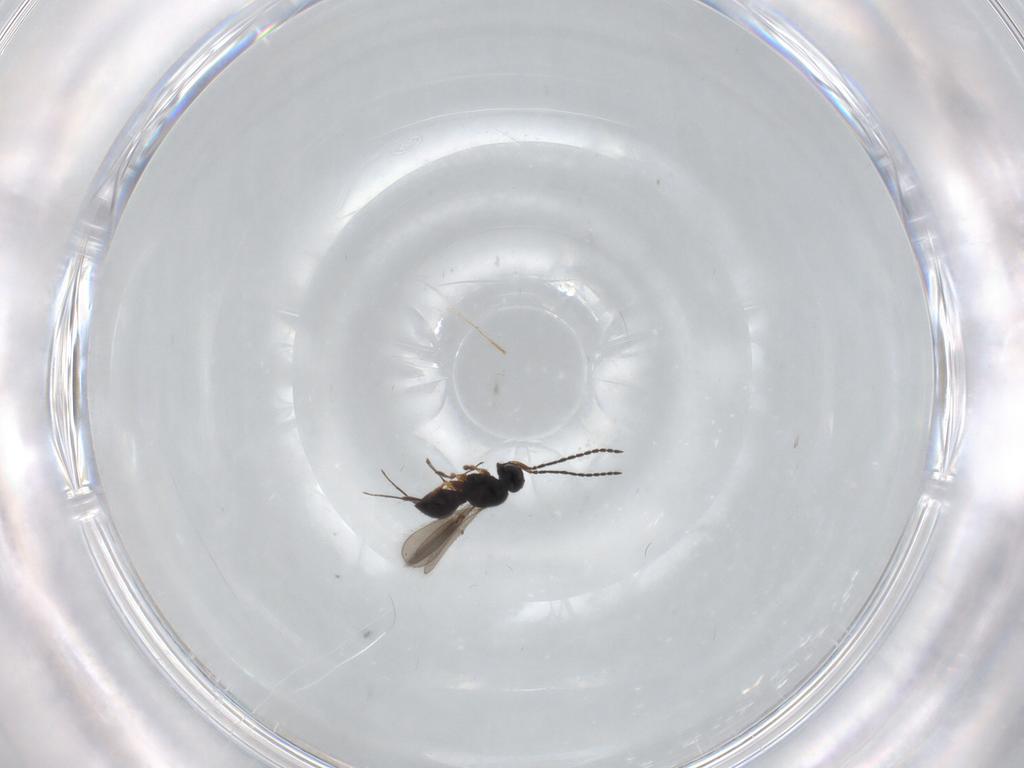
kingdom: Animalia
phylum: Arthropoda
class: Insecta
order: Hymenoptera
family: Scelionidae
